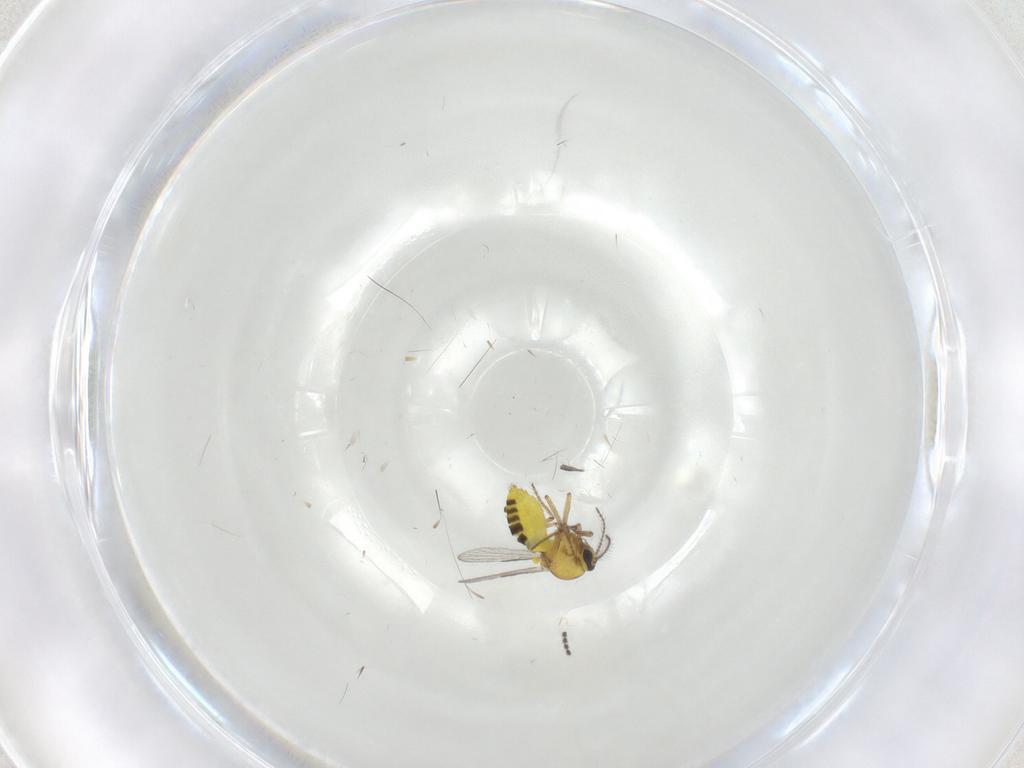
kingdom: Animalia
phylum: Arthropoda
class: Insecta
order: Diptera
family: Ceratopogonidae
